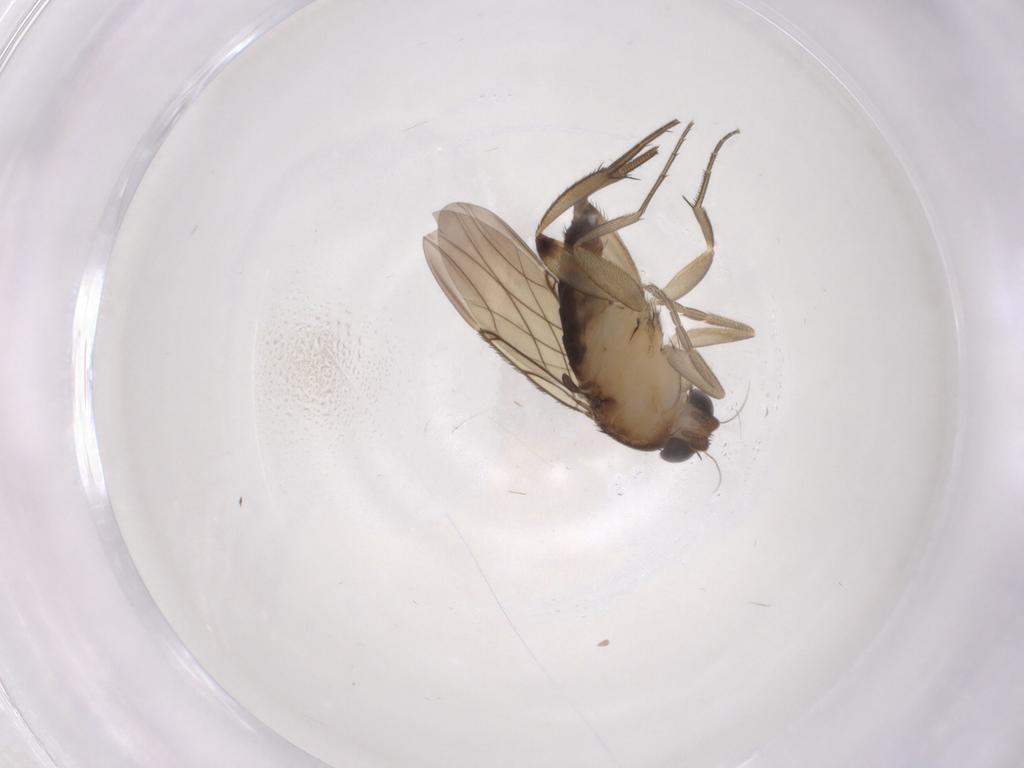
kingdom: Animalia
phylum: Arthropoda
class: Insecta
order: Diptera
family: Phoridae
